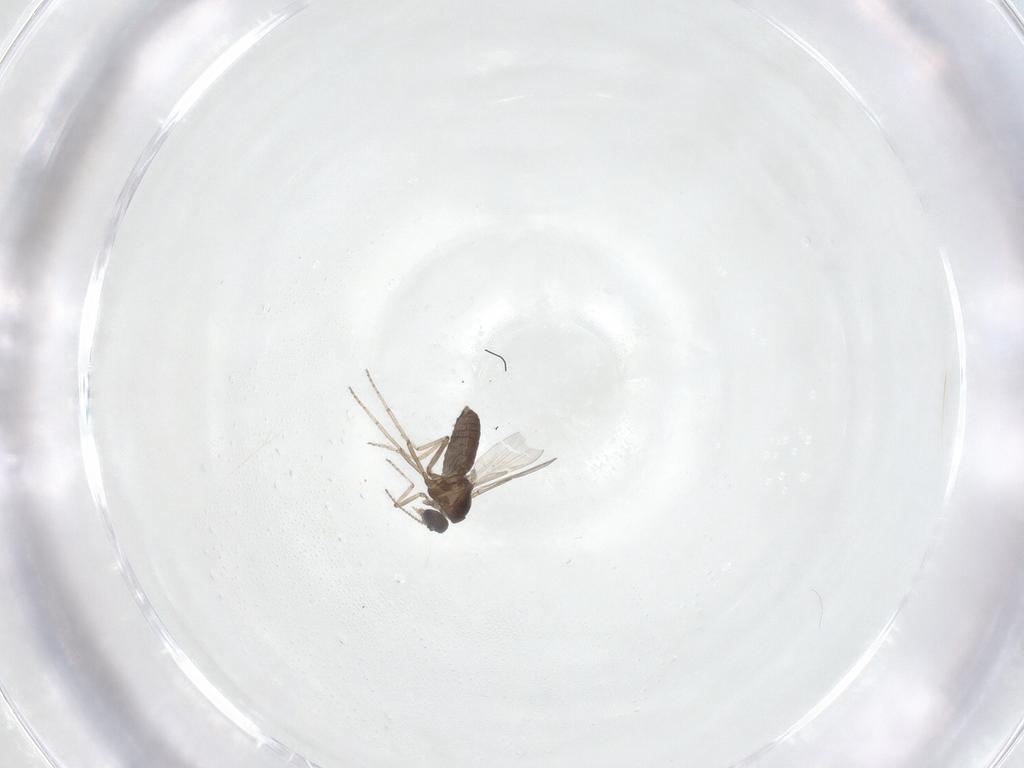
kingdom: Animalia
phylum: Arthropoda
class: Insecta
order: Diptera
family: Ceratopogonidae
